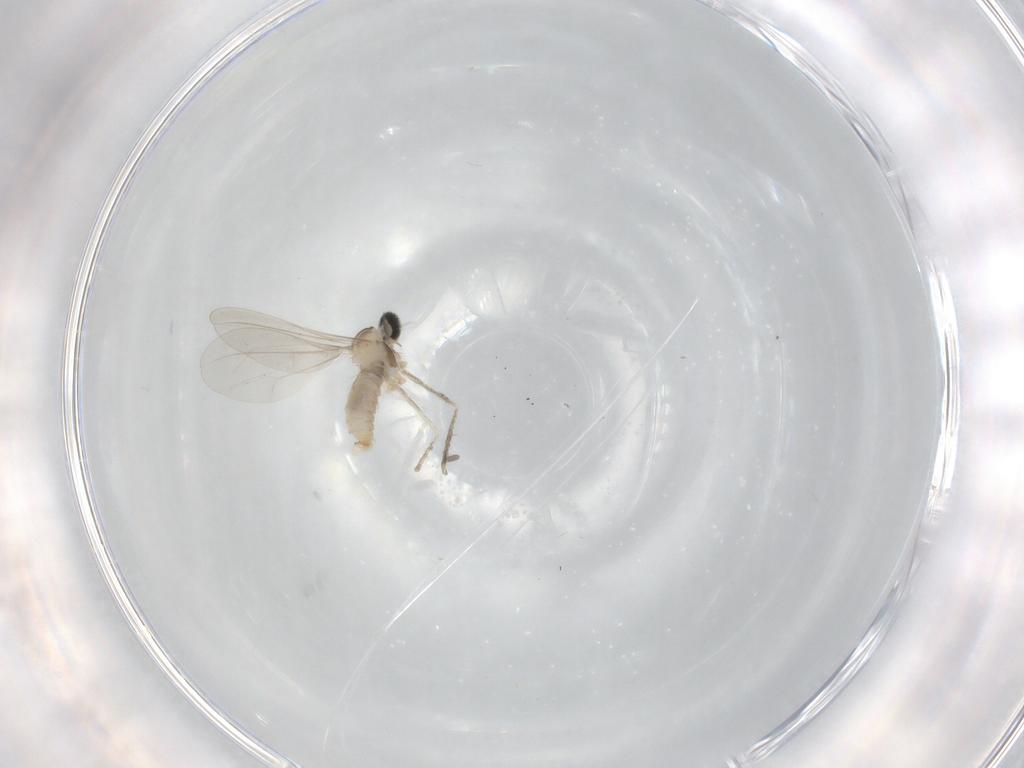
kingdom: Animalia
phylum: Arthropoda
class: Insecta
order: Diptera
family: Cecidomyiidae
